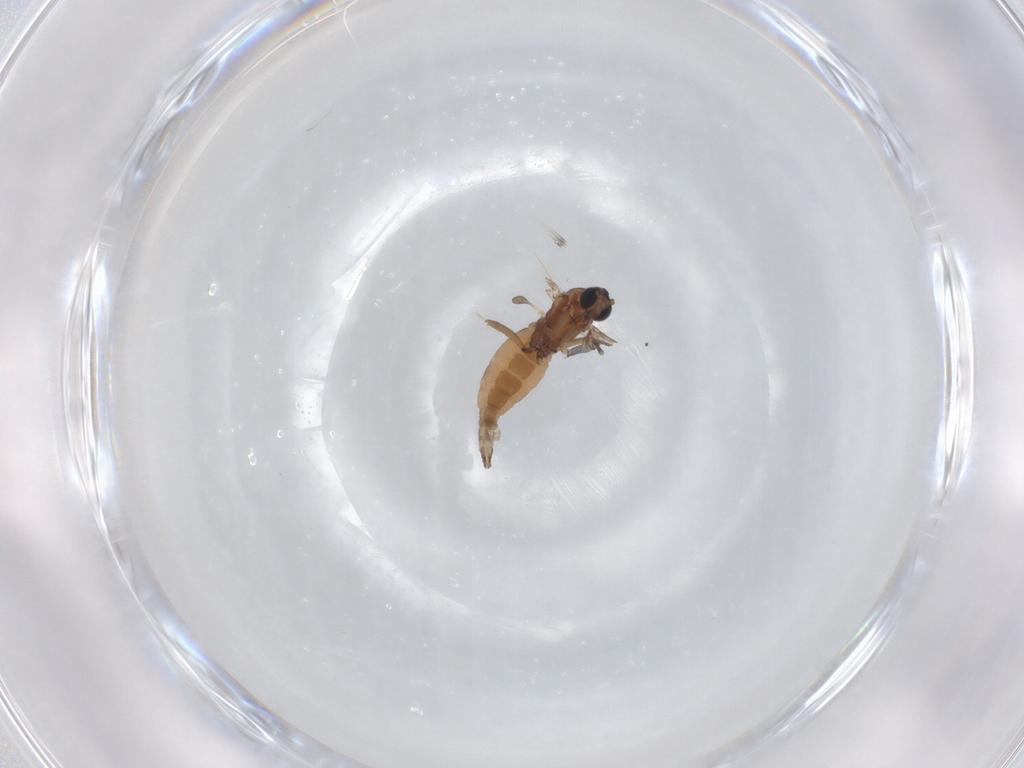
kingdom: Animalia
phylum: Arthropoda
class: Insecta
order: Diptera
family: Sciaridae
